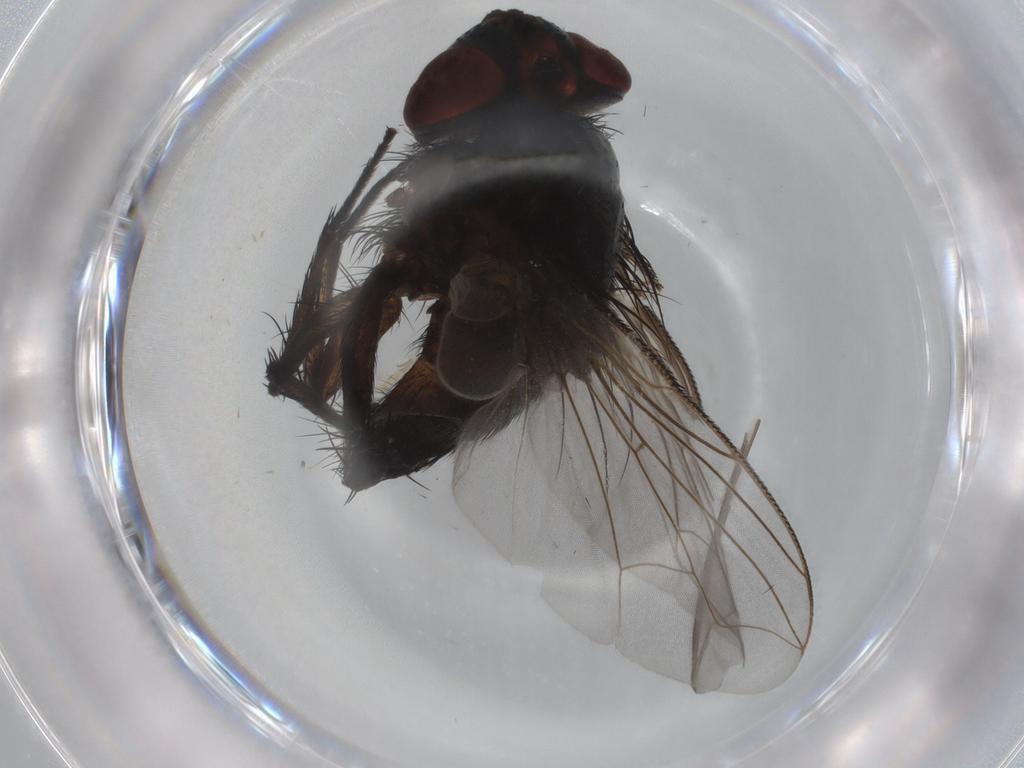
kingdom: Animalia
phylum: Arthropoda
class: Insecta
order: Diptera
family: Asteiidae
